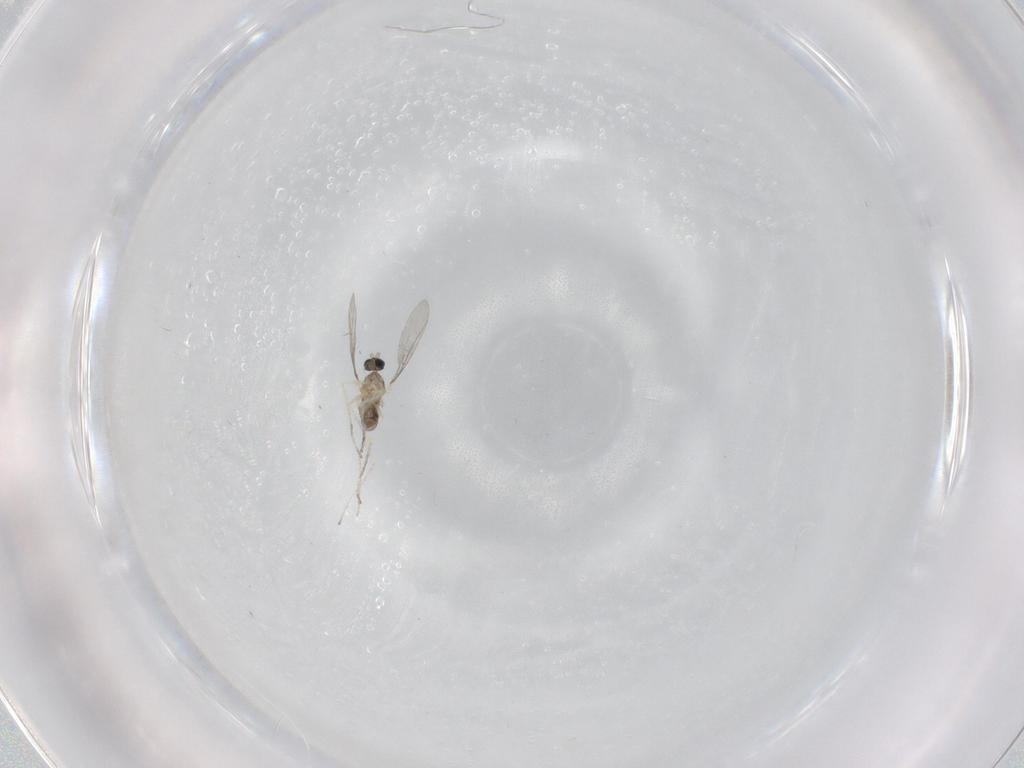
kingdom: Animalia
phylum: Arthropoda
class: Insecta
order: Diptera
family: Cecidomyiidae
